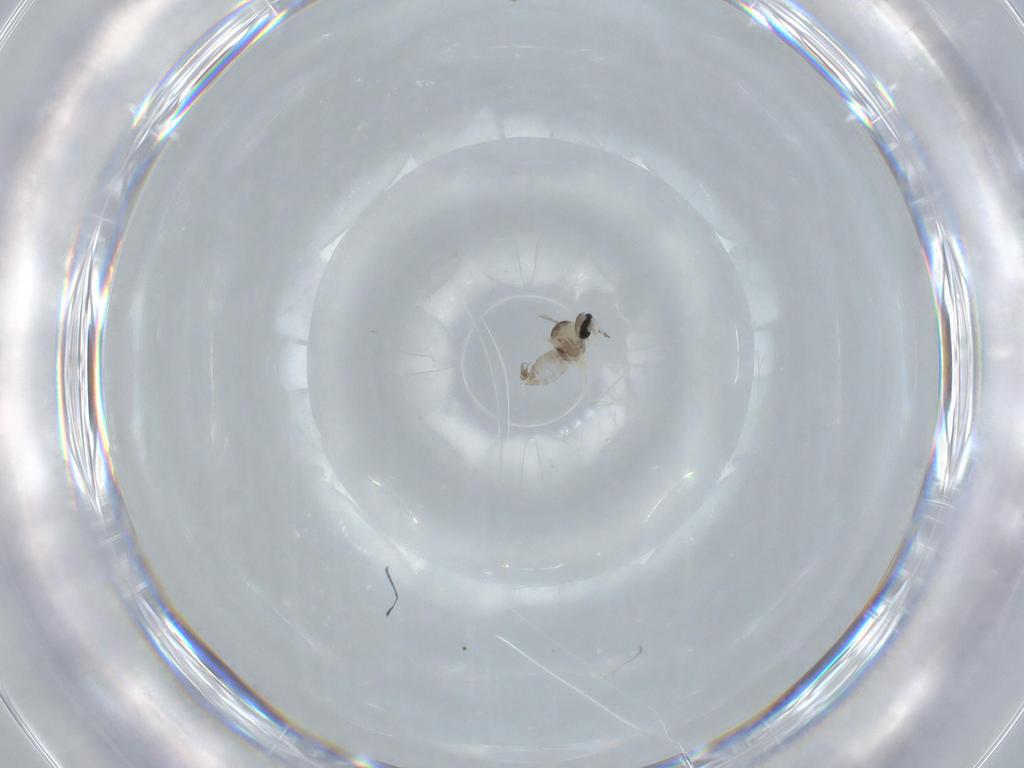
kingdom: Animalia
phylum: Arthropoda
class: Insecta
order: Diptera
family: Cecidomyiidae
